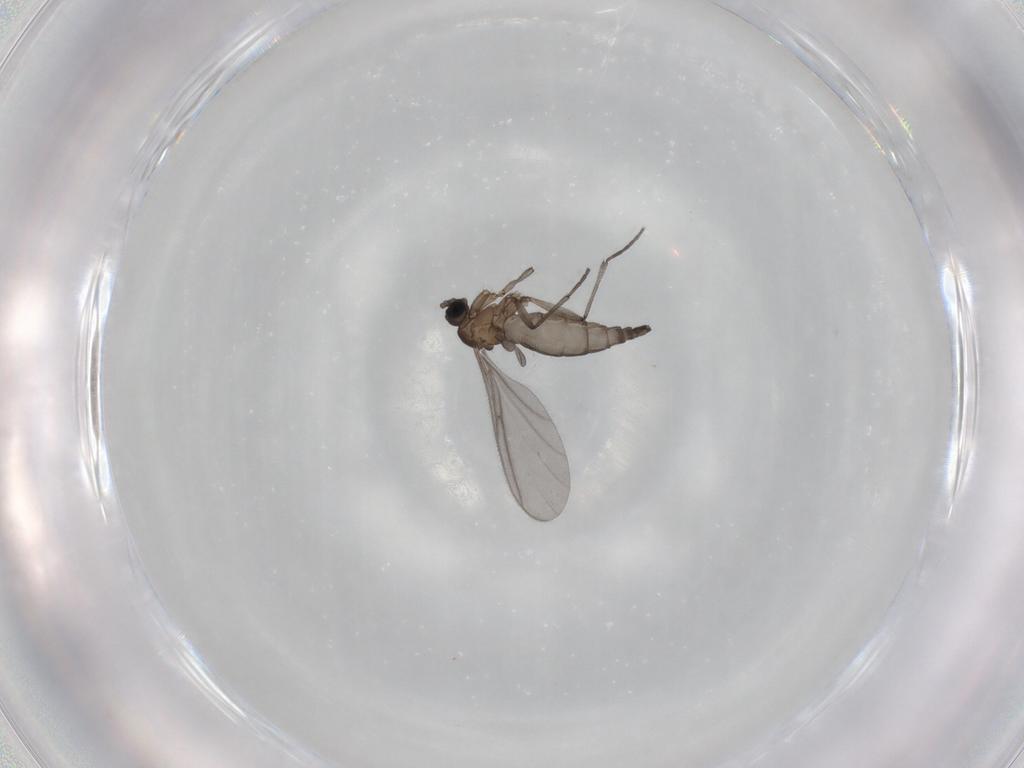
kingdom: Animalia
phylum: Arthropoda
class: Insecta
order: Diptera
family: Sciaridae
